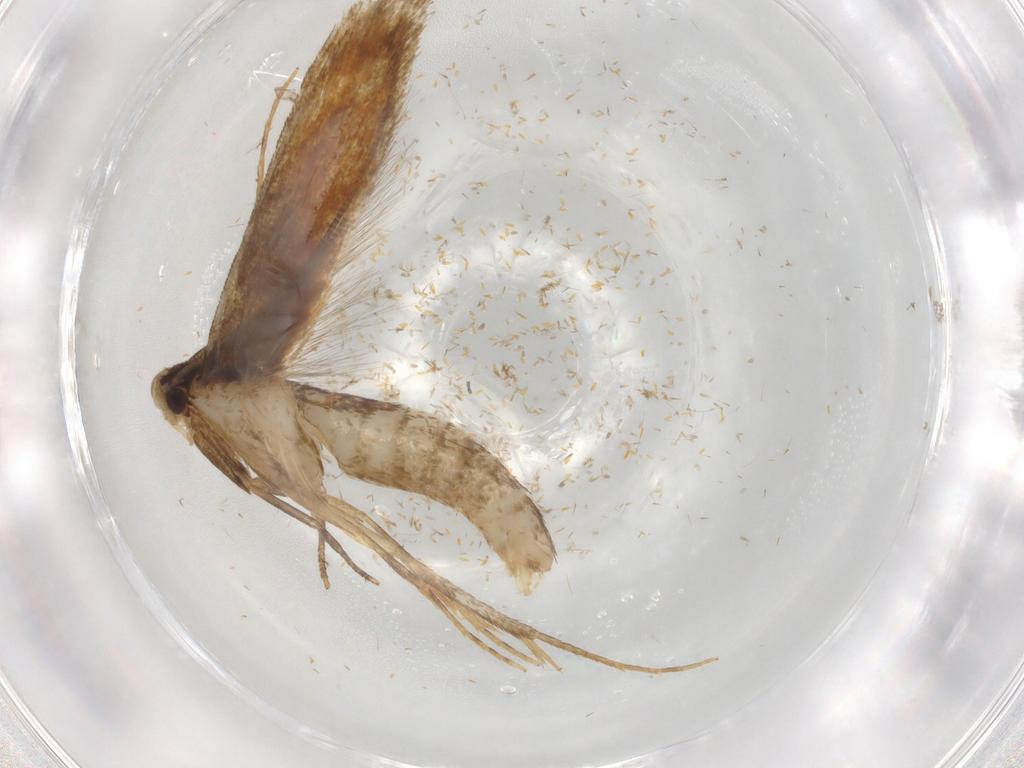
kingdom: Animalia
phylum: Arthropoda
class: Insecta
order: Lepidoptera
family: Tineidae
